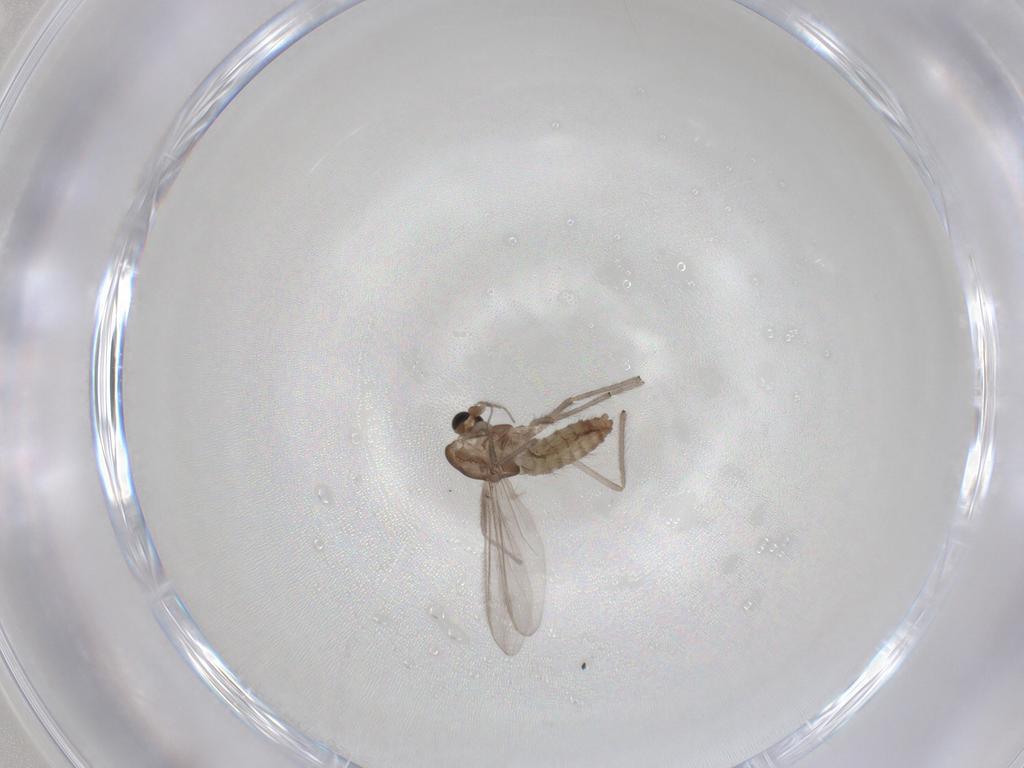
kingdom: Animalia
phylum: Arthropoda
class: Insecta
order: Diptera
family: Chironomidae
